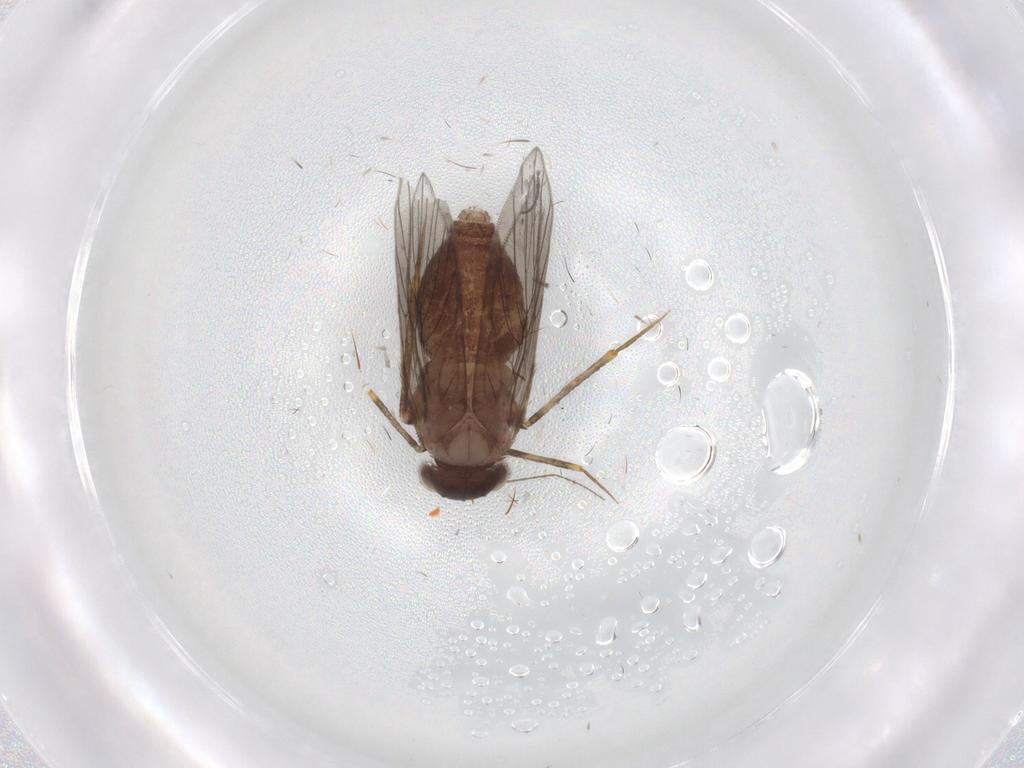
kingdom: Animalia
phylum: Arthropoda
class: Insecta
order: Psocodea
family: Lepidopsocidae
